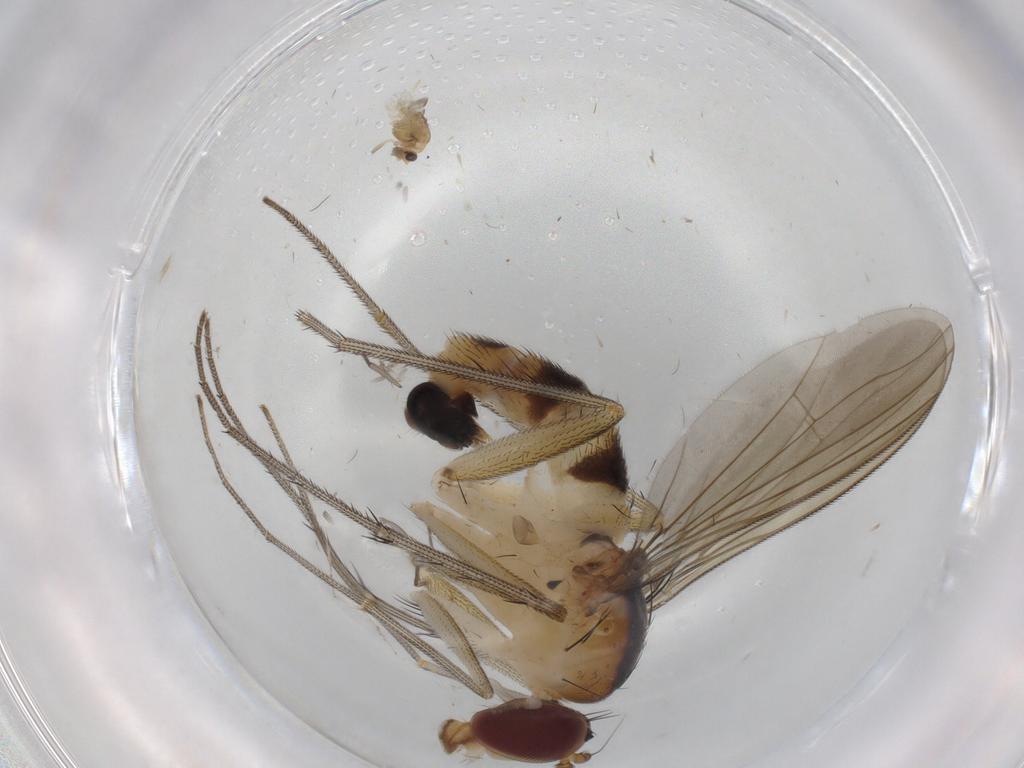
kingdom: Animalia
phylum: Arthropoda
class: Insecta
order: Diptera
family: Chironomidae
